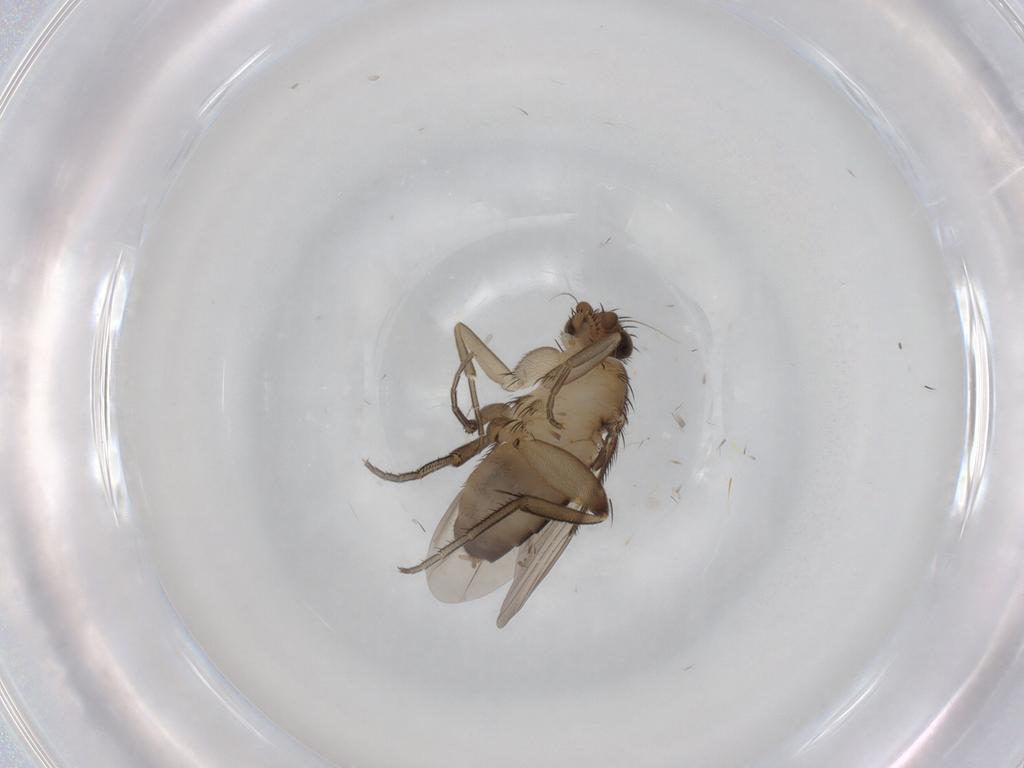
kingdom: Animalia
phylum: Arthropoda
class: Insecta
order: Diptera
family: Phoridae
